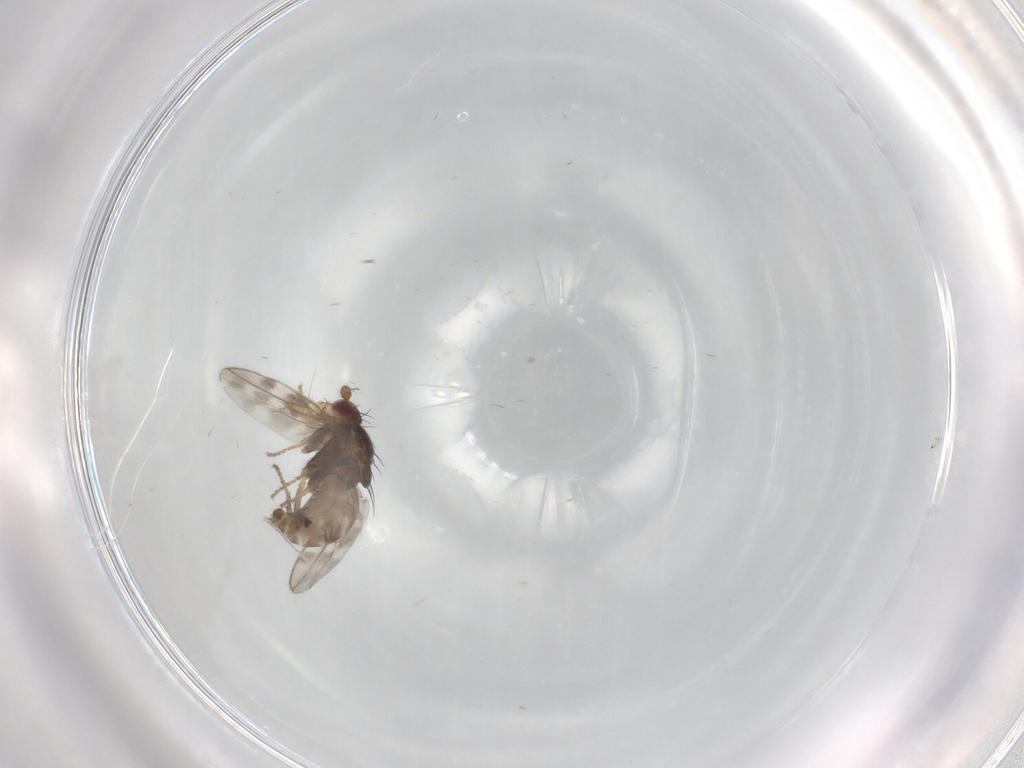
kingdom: Animalia
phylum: Arthropoda
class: Insecta
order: Diptera
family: Sphaeroceridae
